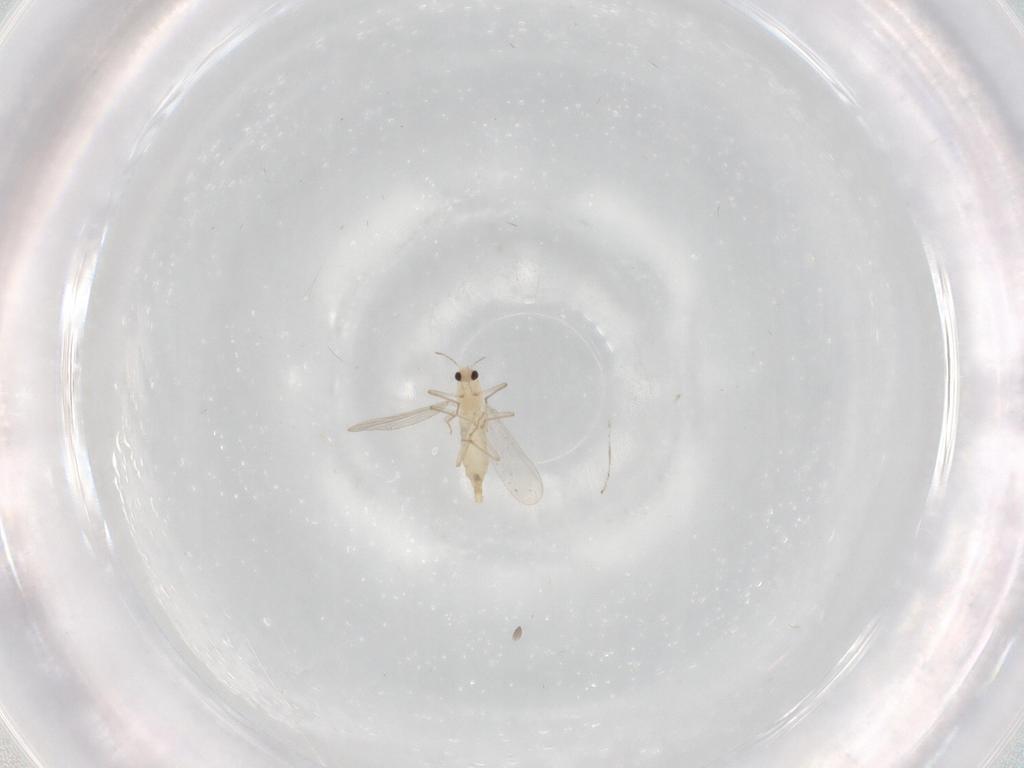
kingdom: Animalia
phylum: Arthropoda
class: Insecta
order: Diptera
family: Chironomidae
